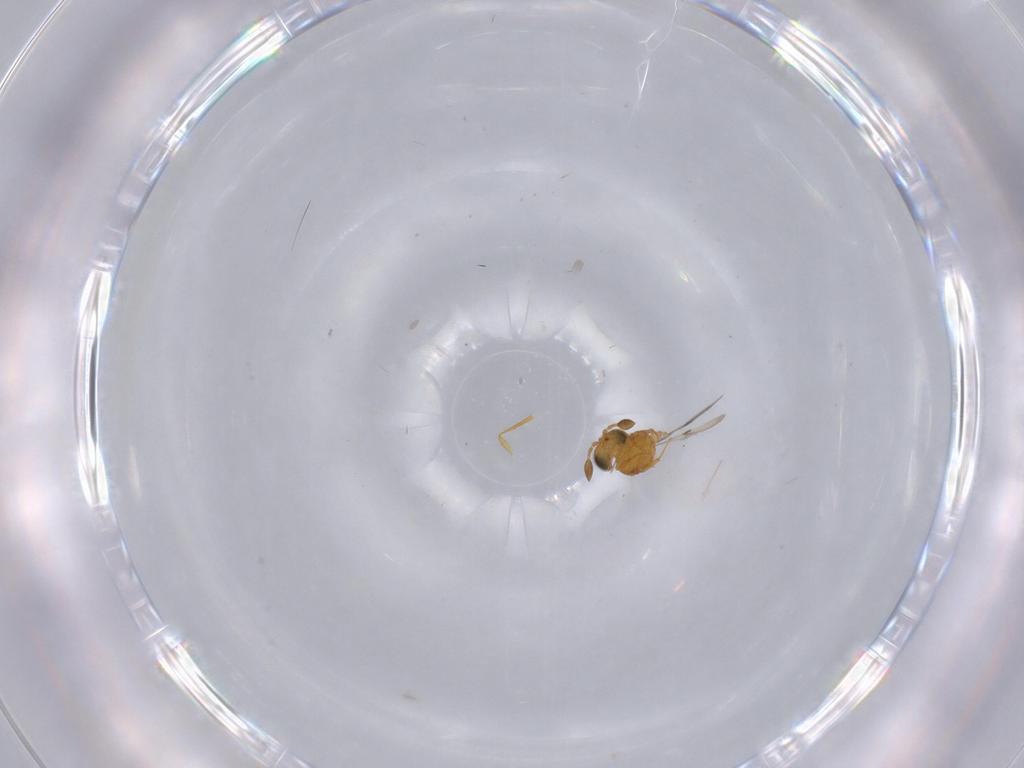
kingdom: Animalia
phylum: Arthropoda
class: Insecta
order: Hymenoptera
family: Scelionidae
